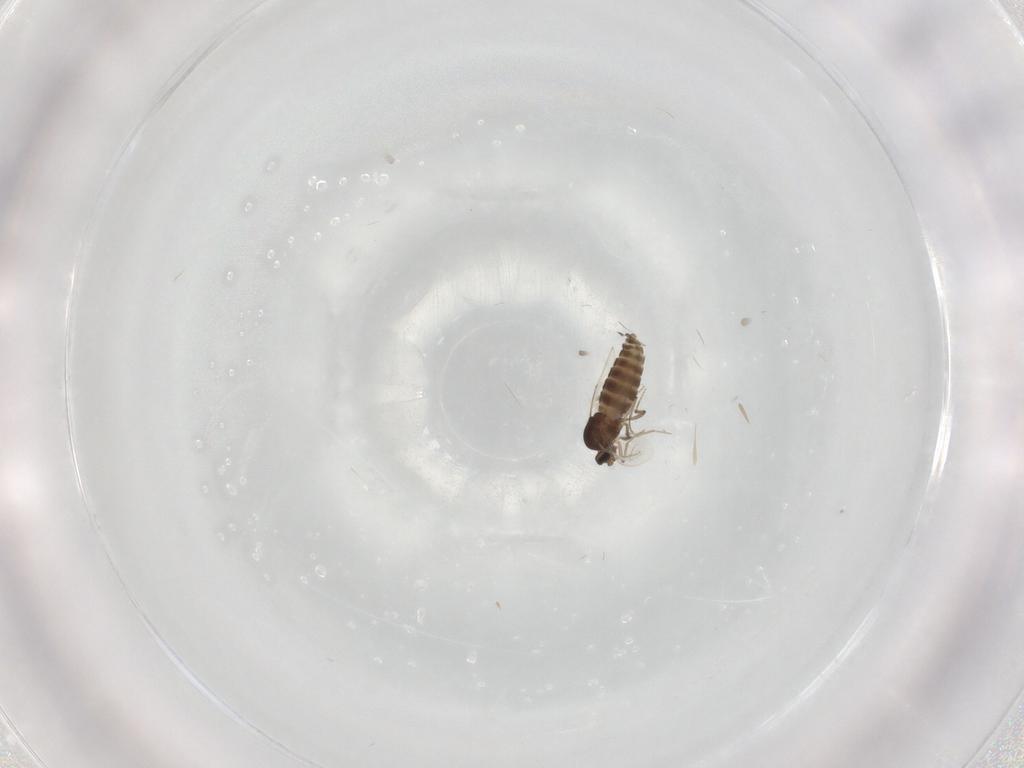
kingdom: Animalia
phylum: Arthropoda
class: Insecta
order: Diptera
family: Ceratopogonidae
